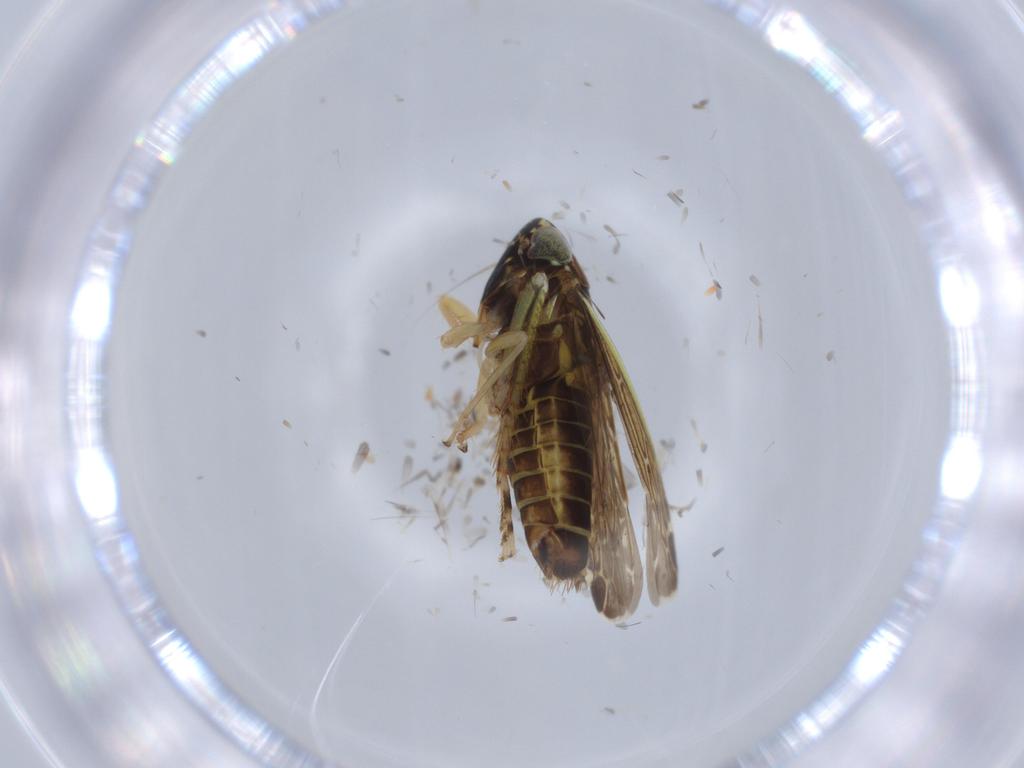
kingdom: Animalia
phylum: Arthropoda
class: Insecta
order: Hemiptera
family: Cicadellidae
